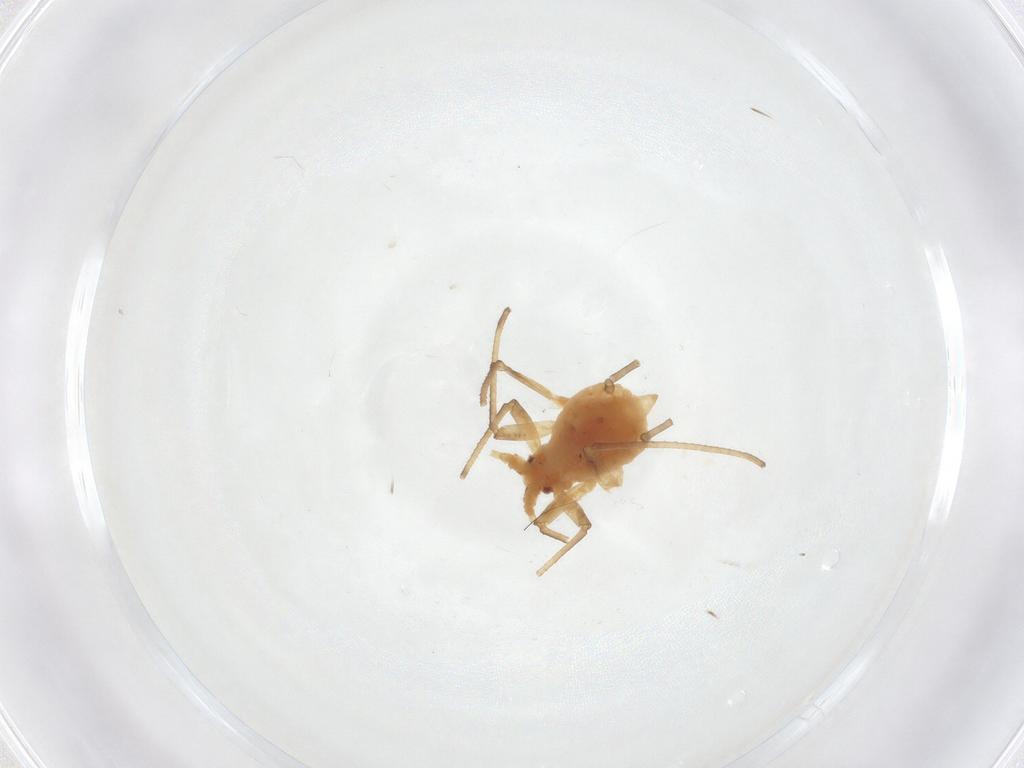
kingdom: Animalia
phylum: Arthropoda
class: Insecta
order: Hemiptera
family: Aphididae
